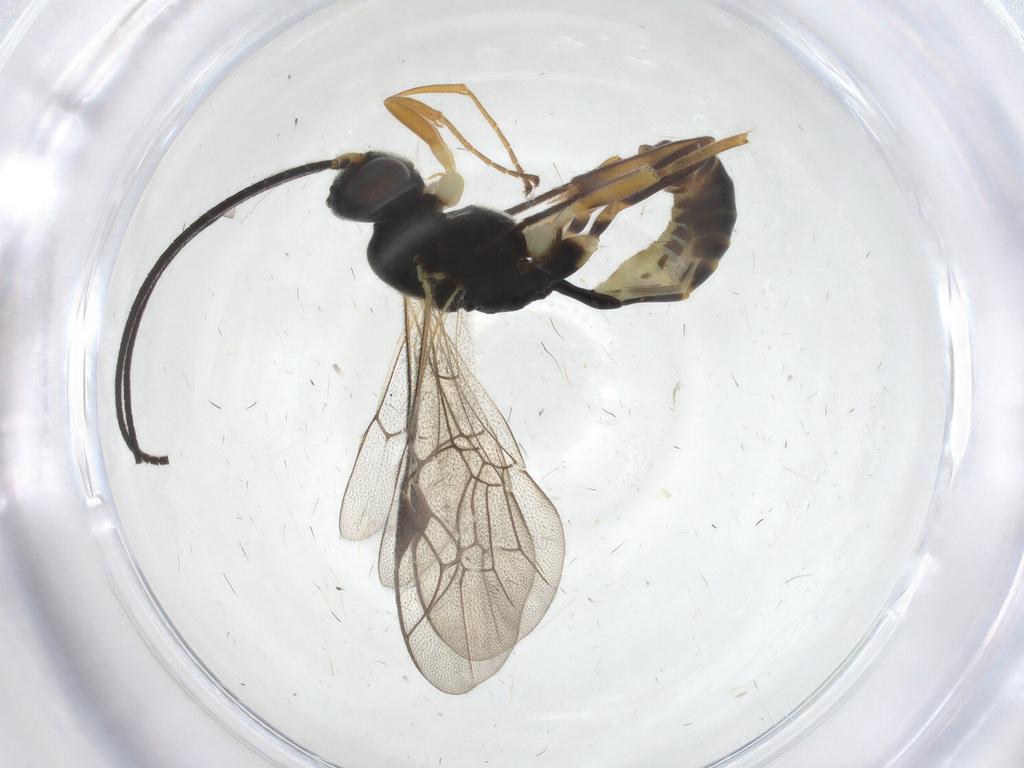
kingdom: Animalia
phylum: Arthropoda
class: Insecta
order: Hymenoptera
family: Ichneumonidae
